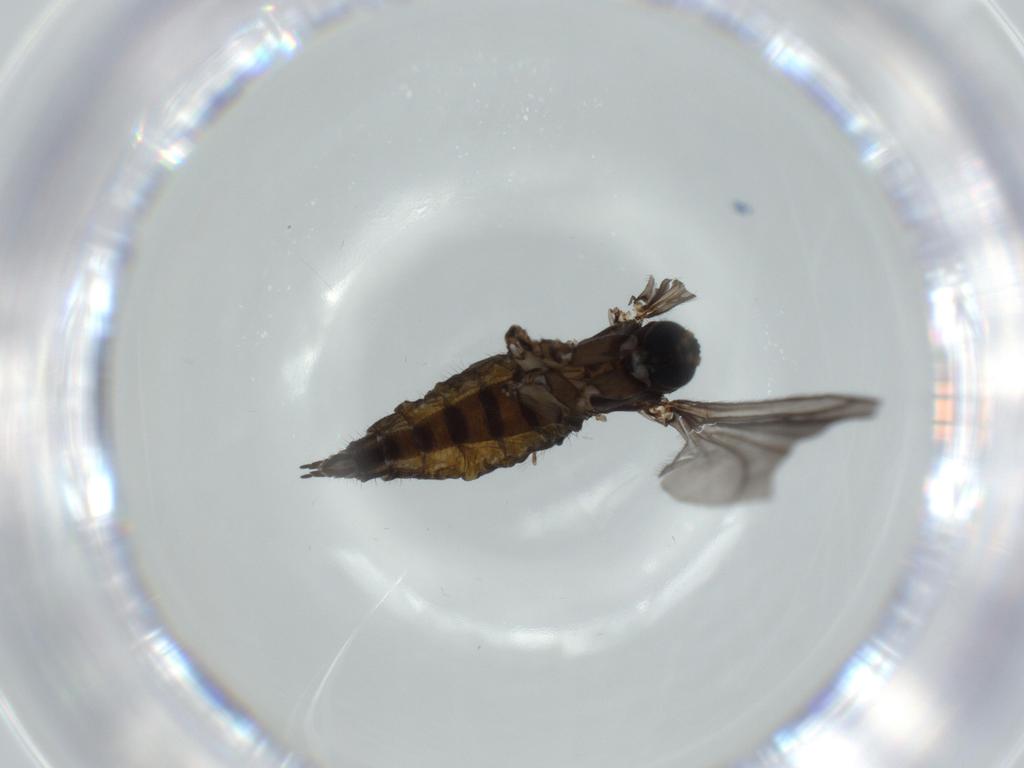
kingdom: Animalia
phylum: Arthropoda
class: Insecta
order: Diptera
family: Sciaridae
